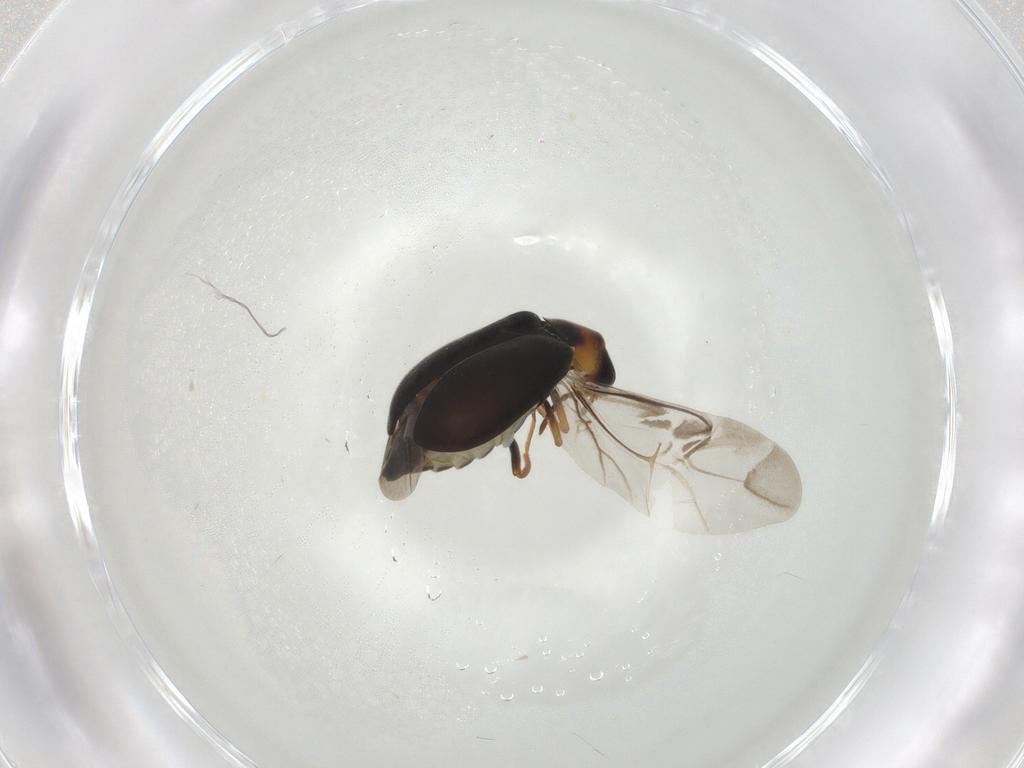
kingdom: Animalia
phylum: Arthropoda
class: Insecta
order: Coleoptera
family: Melyridae
